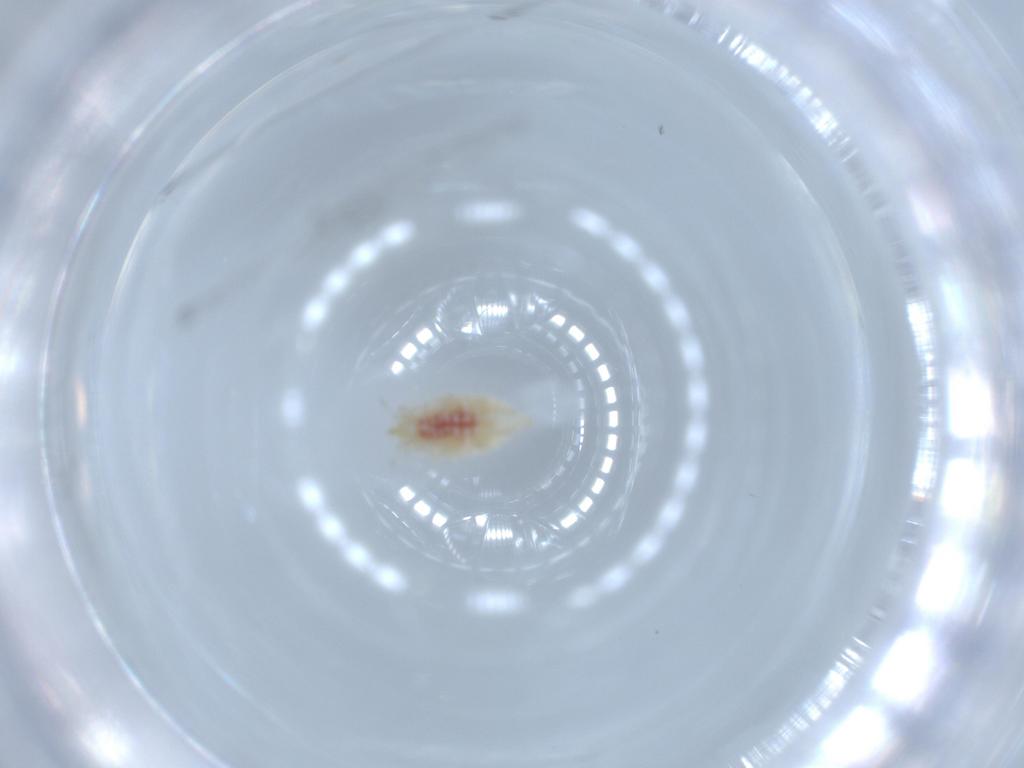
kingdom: Animalia
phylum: Arthropoda
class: Insecta
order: Neuroptera
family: Coniopterygidae
